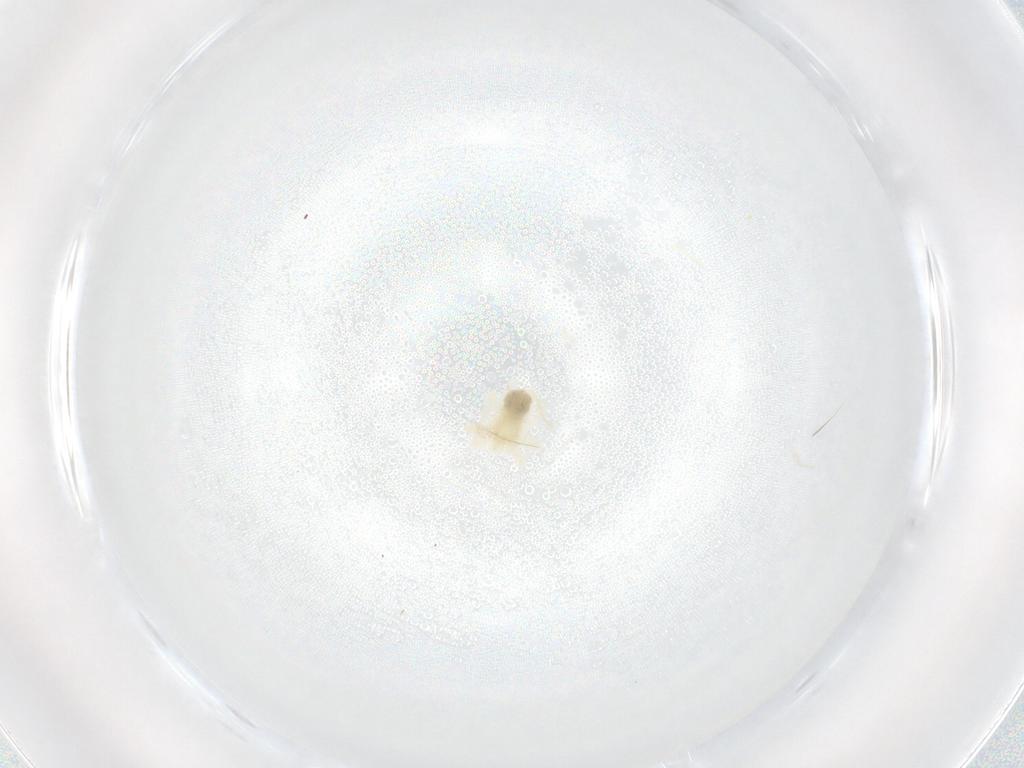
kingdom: Animalia
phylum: Arthropoda
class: Arachnida
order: Trombidiformes
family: Anystidae
